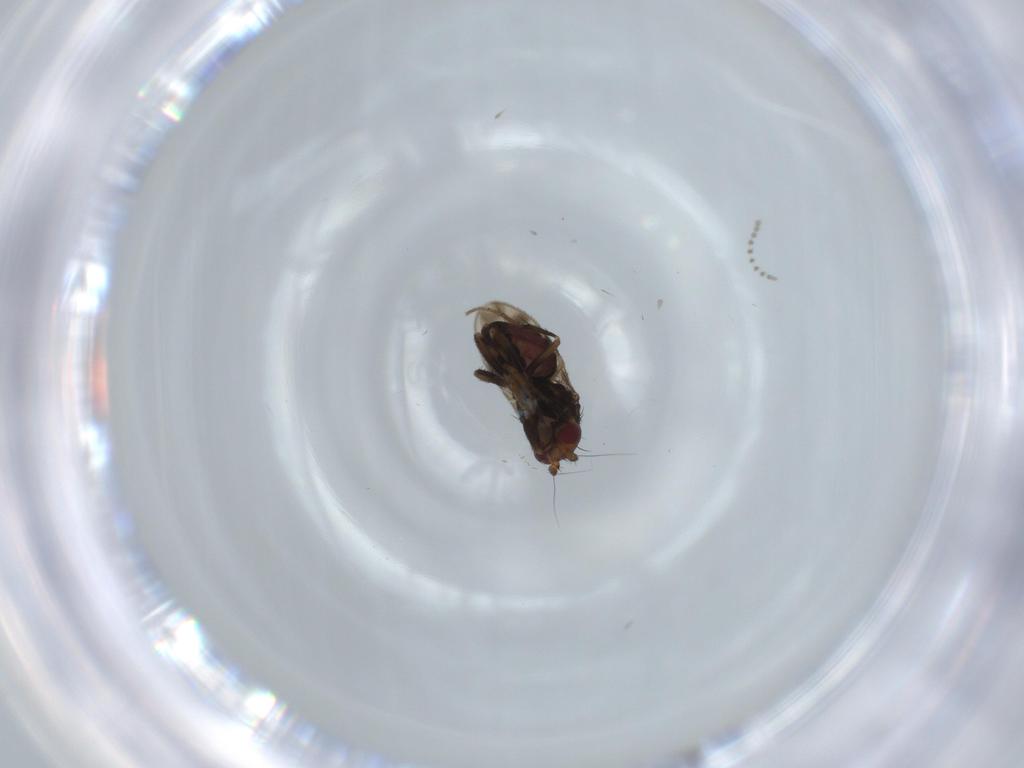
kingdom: Animalia
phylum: Arthropoda
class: Insecta
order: Diptera
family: Sphaeroceridae
